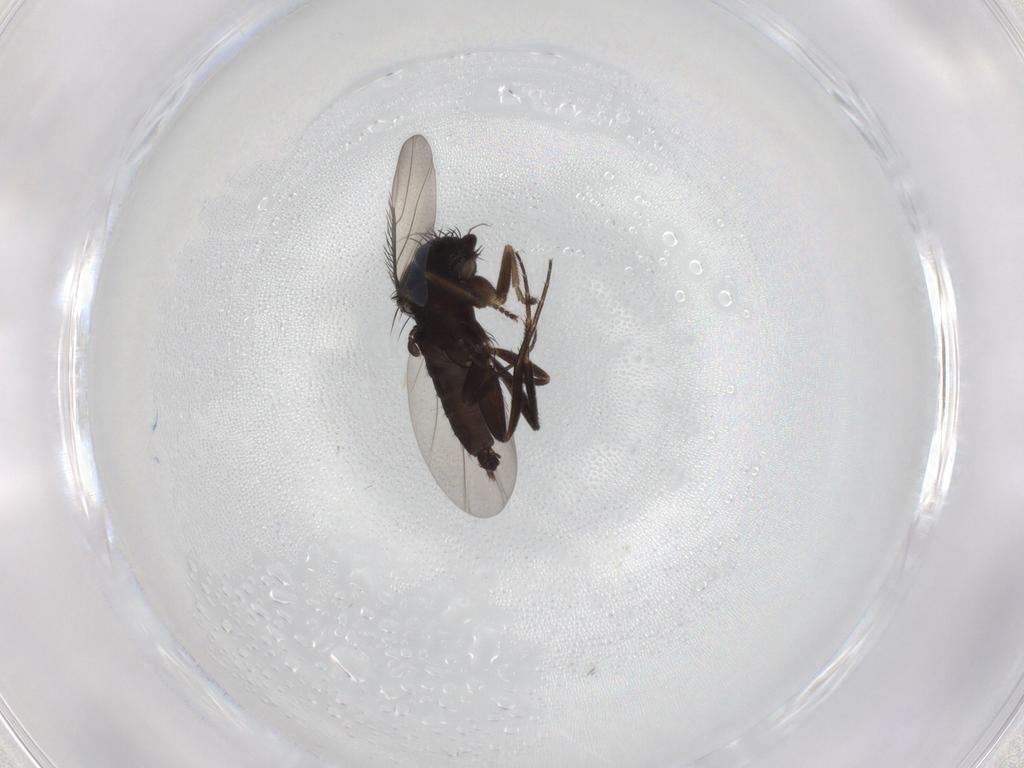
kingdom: Animalia
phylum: Arthropoda
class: Insecta
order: Diptera
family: Phoridae
